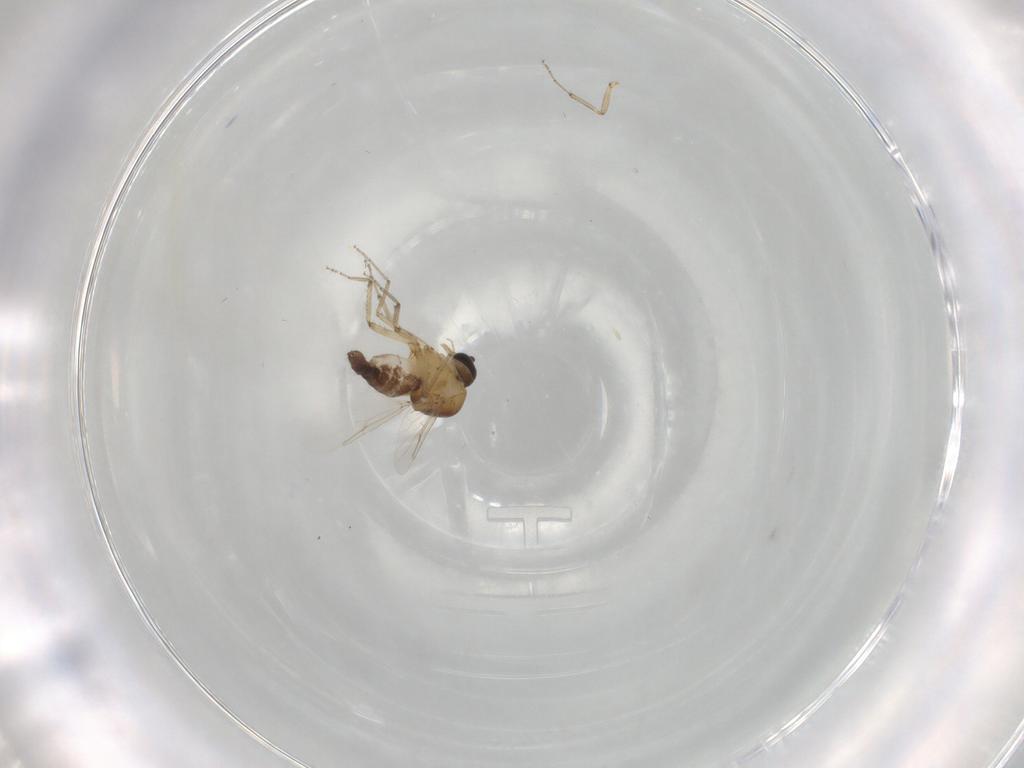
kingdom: Animalia
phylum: Arthropoda
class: Insecta
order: Diptera
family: Ceratopogonidae
